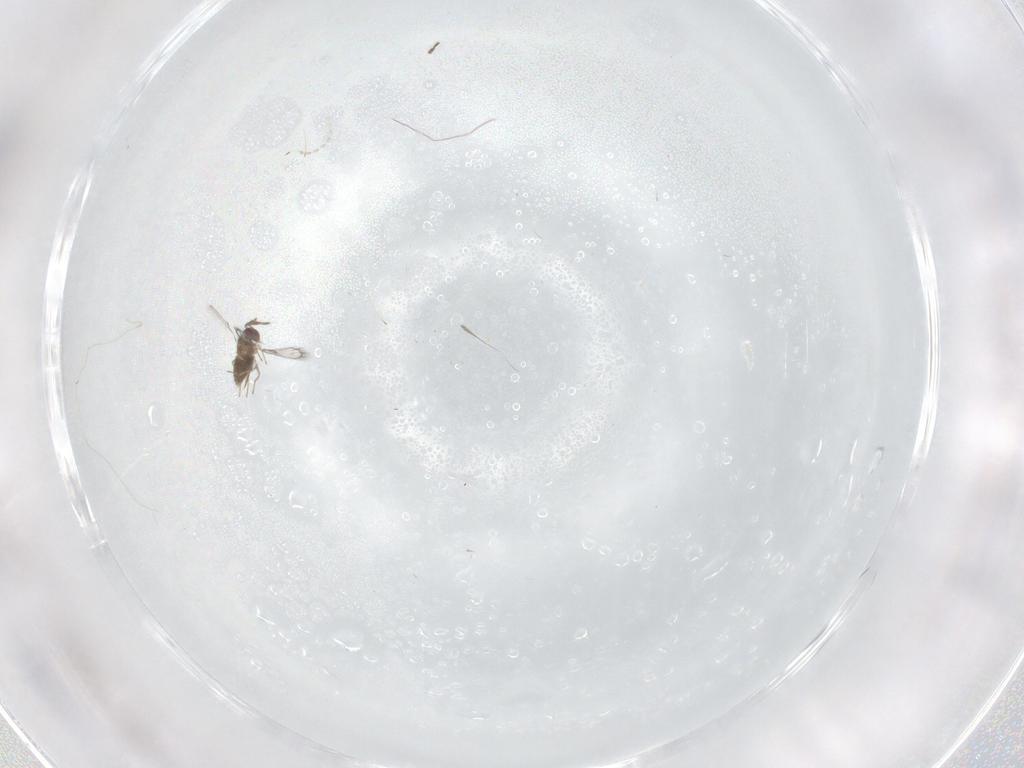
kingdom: Animalia
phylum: Arthropoda
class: Insecta
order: Diptera
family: Cecidomyiidae
